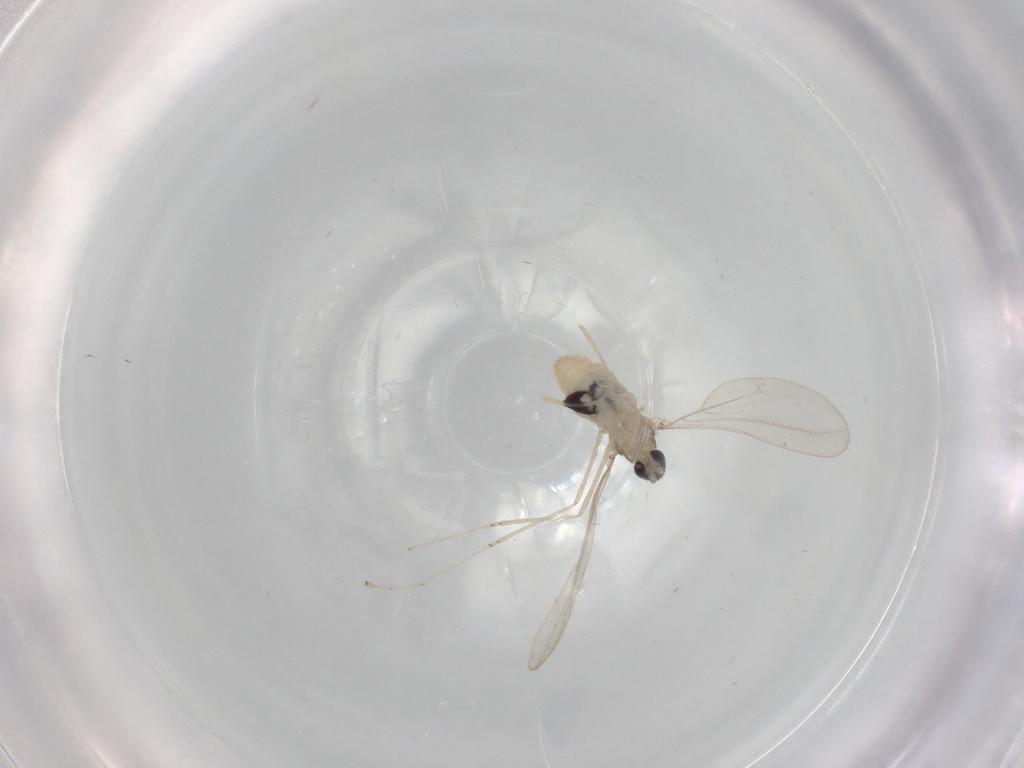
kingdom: Animalia
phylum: Arthropoda
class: Insecta
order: Diptera
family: Cecidomyiidae
